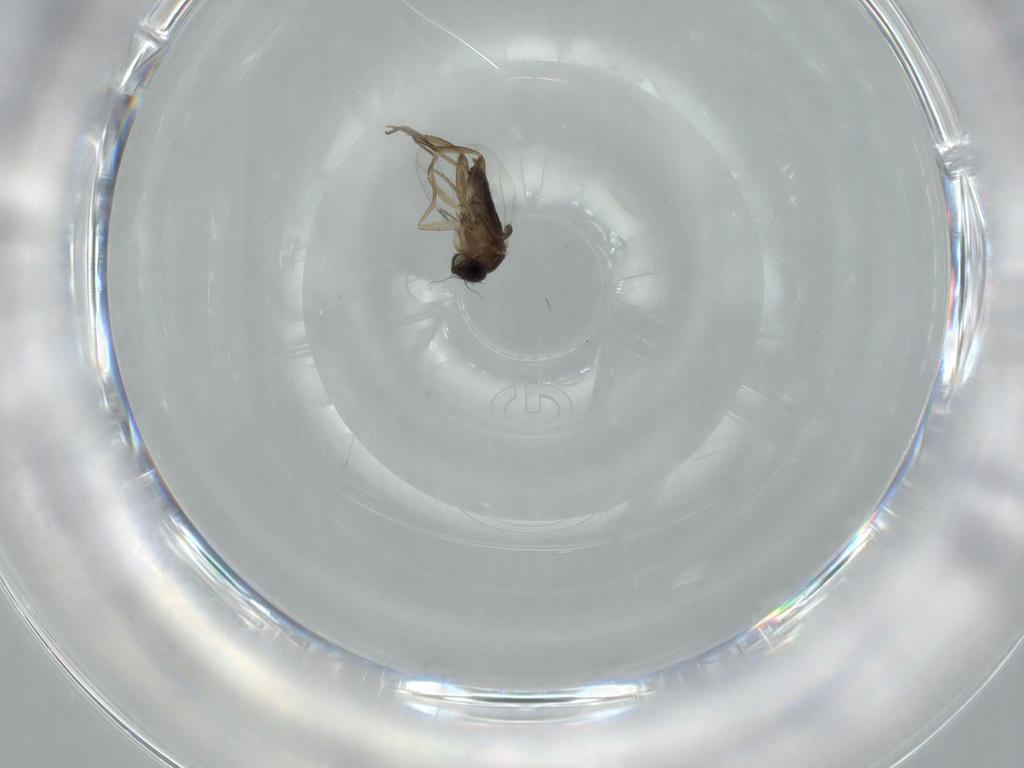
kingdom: Animalia
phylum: Arthropoda
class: Insecta
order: Diptera
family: Phoridae
